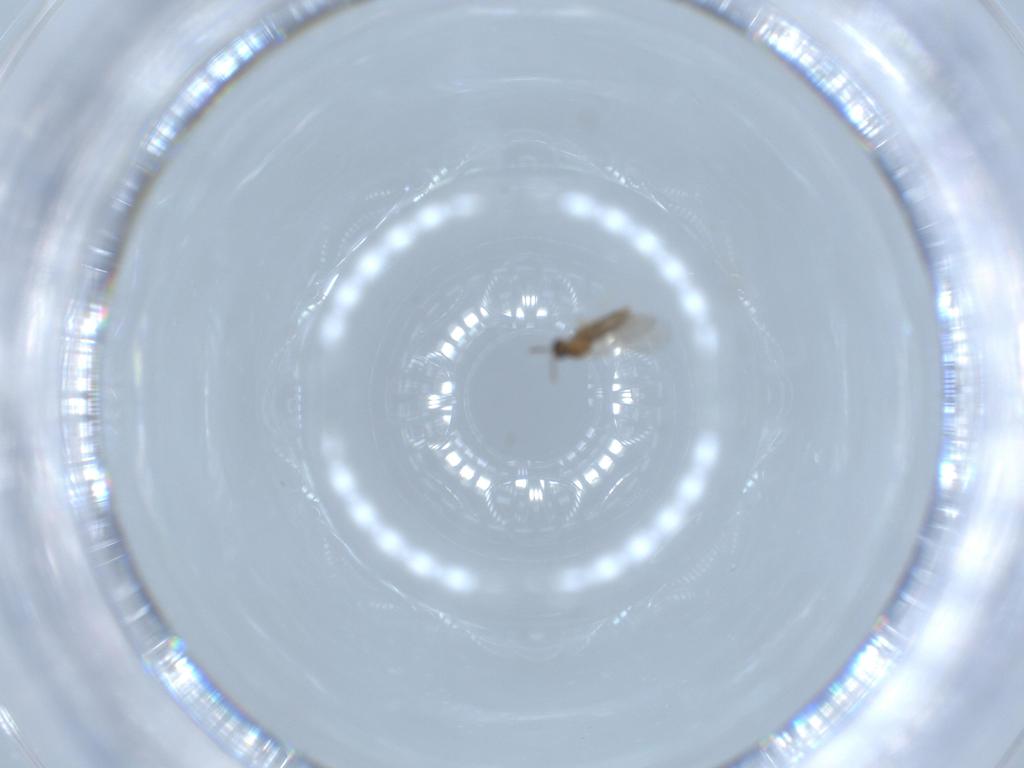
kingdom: Animalia
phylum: Arthropoda
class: Insecta
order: Diptera
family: Cecidomyiidae
